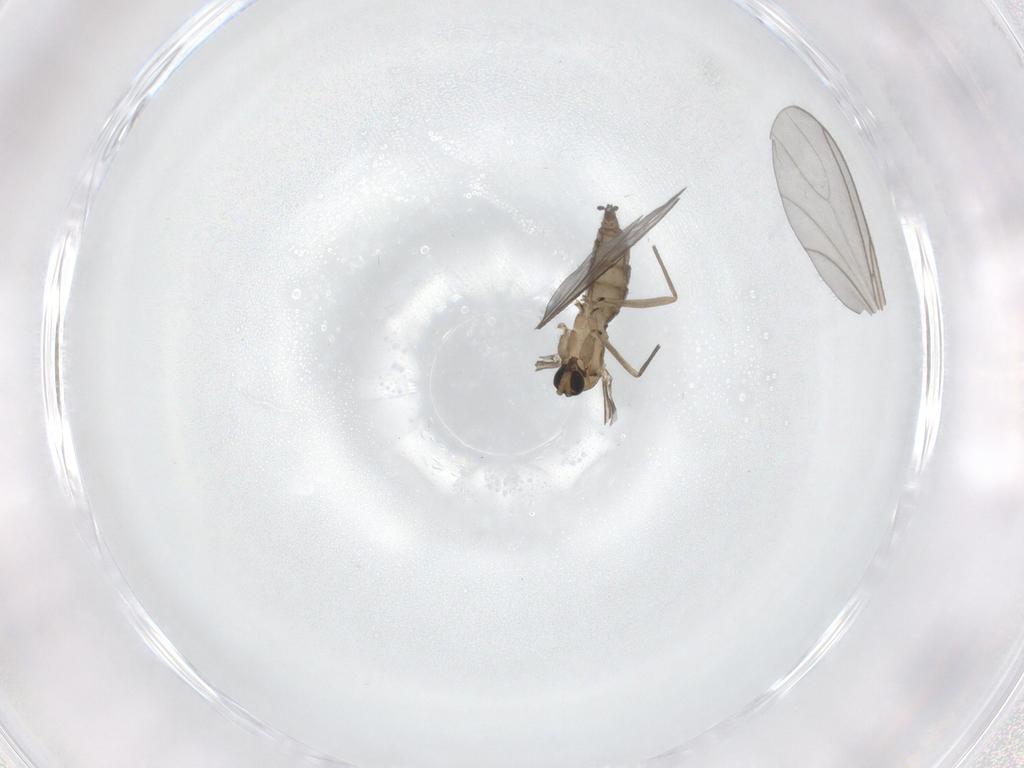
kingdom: Animalia
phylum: Arthropoda
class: Insecta
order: Diptera
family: Sciaridae
